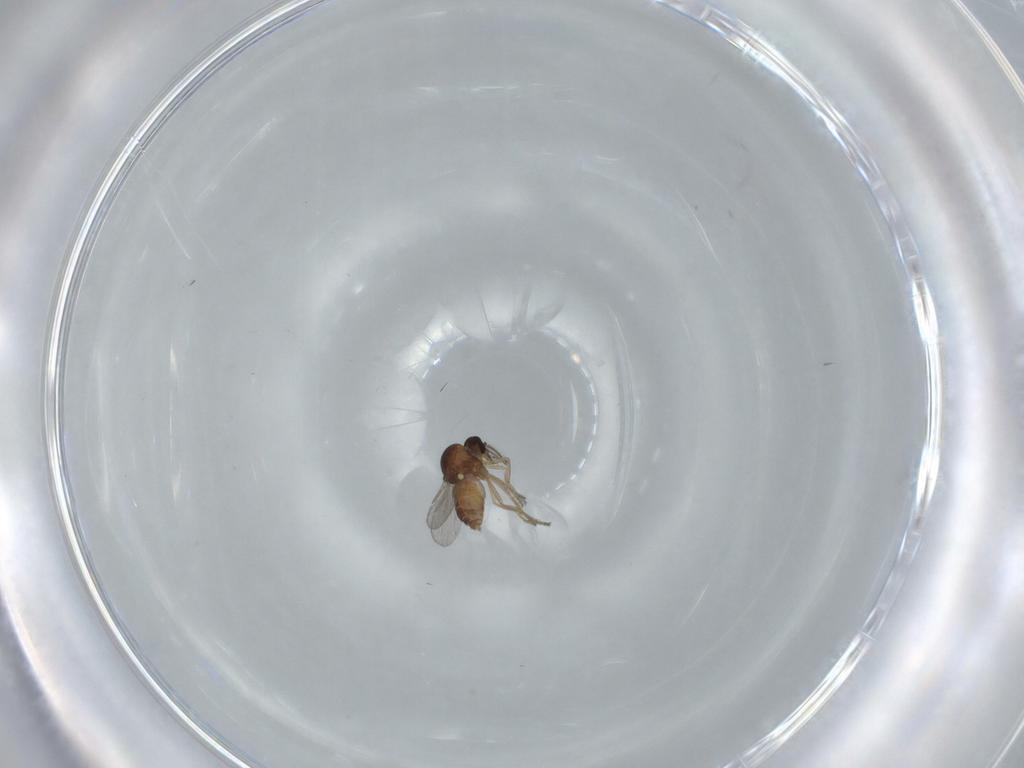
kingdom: Animalia
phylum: Arthropoda
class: Insecta
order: Diptera
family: Ceratopogonidae
